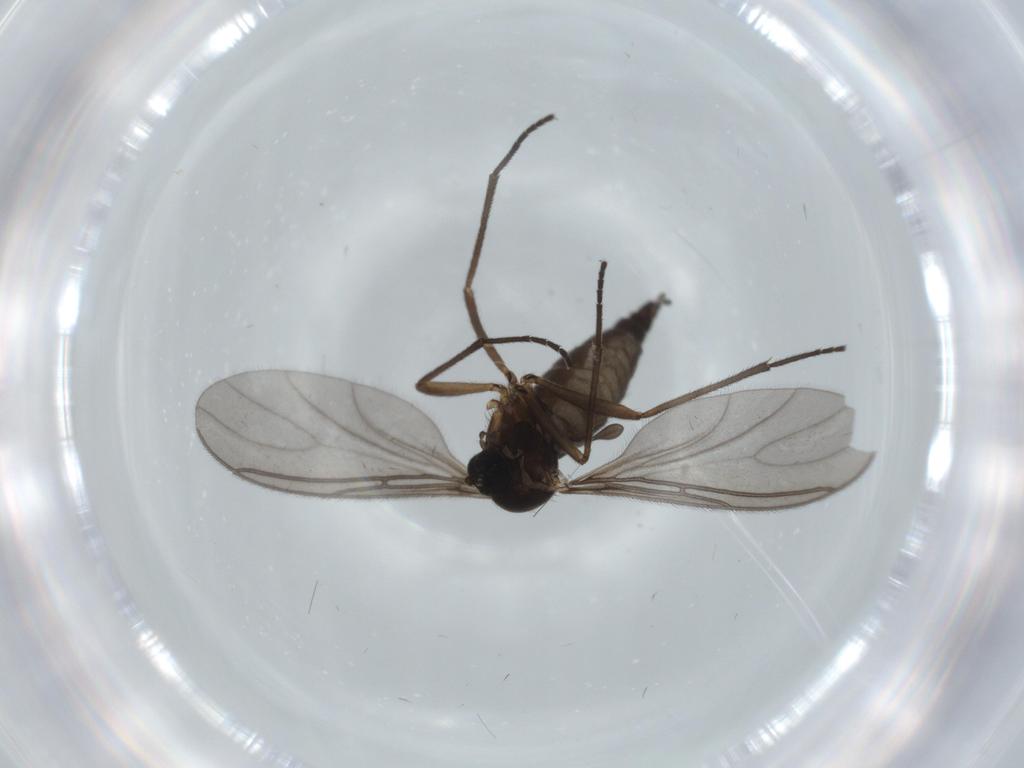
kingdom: Animalia
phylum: Arthropoda
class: Insecta
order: Diptera
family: Sciaridae
